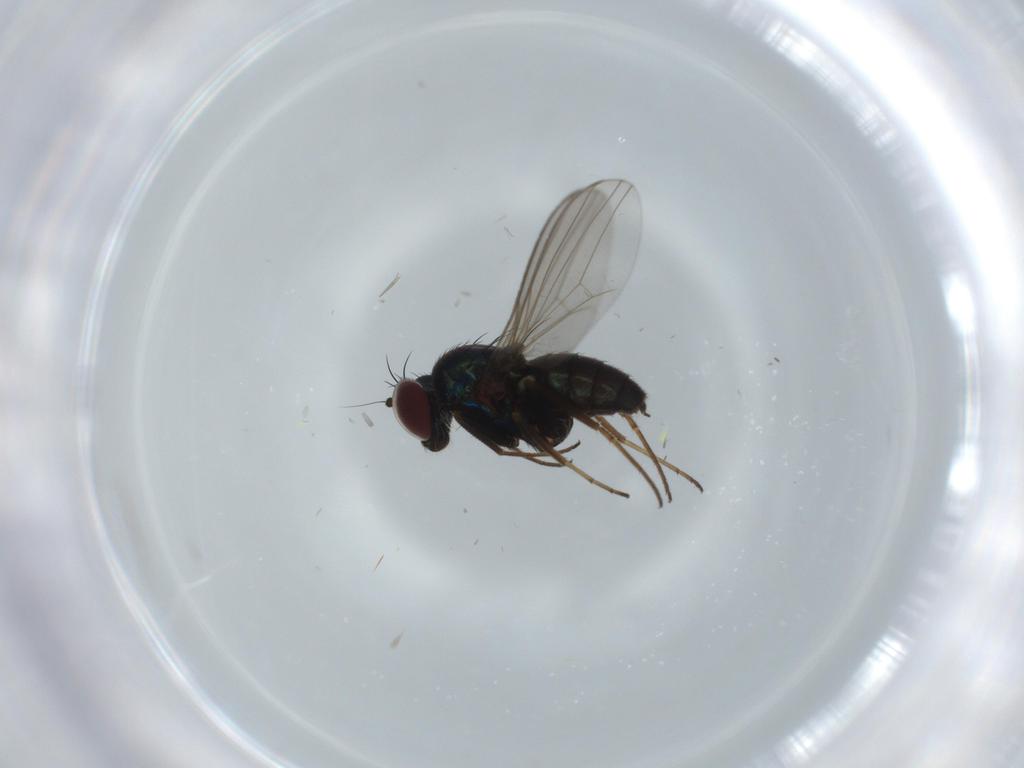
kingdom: Animalia
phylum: Arthropoda
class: Insecta
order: Diptera
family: Dolichopodidae
